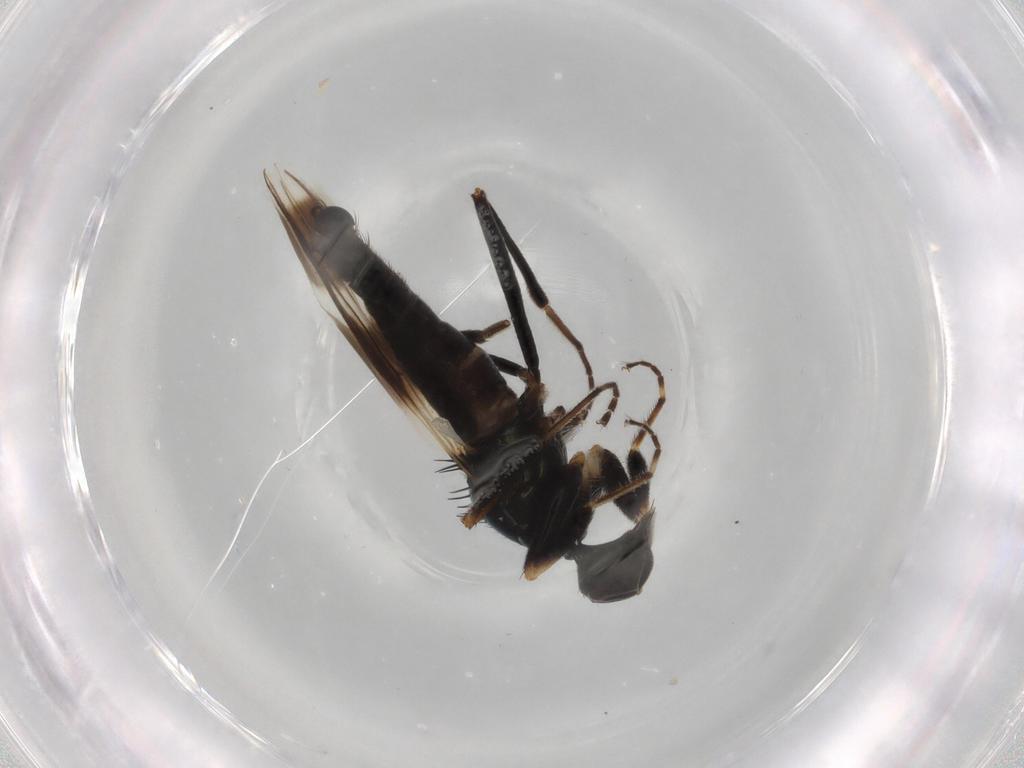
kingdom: Animalia
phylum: Arthropoda
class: Insecta
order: Diptera
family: Hybotidae
